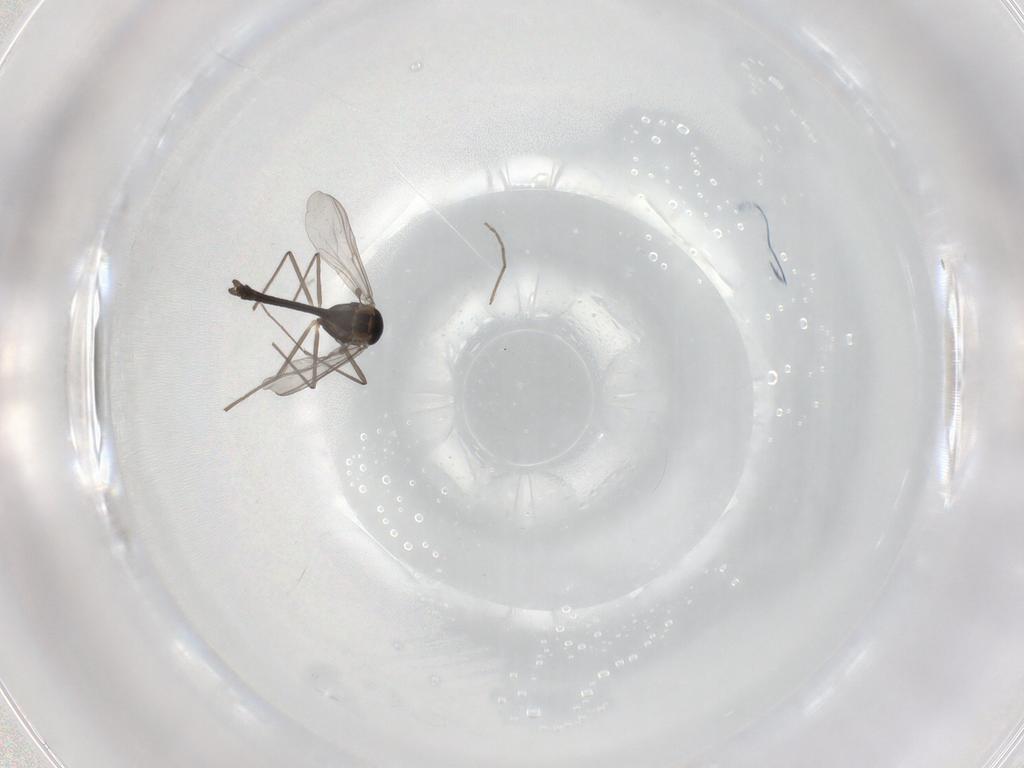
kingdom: Animalia
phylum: Arthropoda
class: Insecta
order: Diptera
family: Chironomidae
